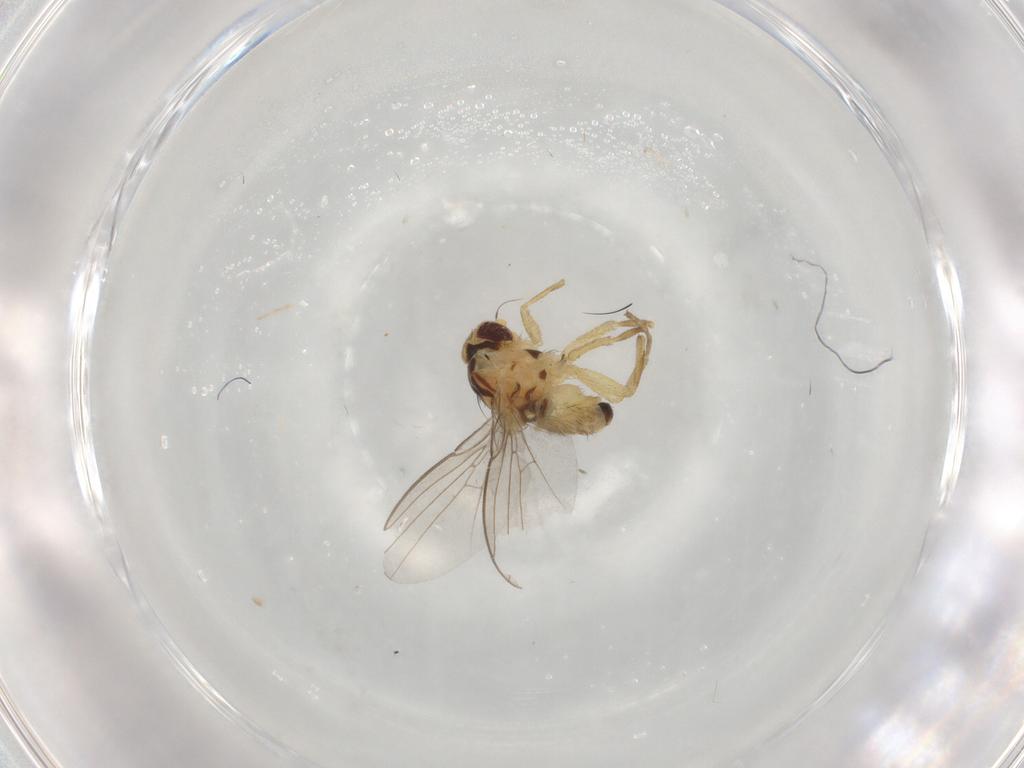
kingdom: Animalia
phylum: Arthropoda
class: Insecta
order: Diptera
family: Agromyzidae
